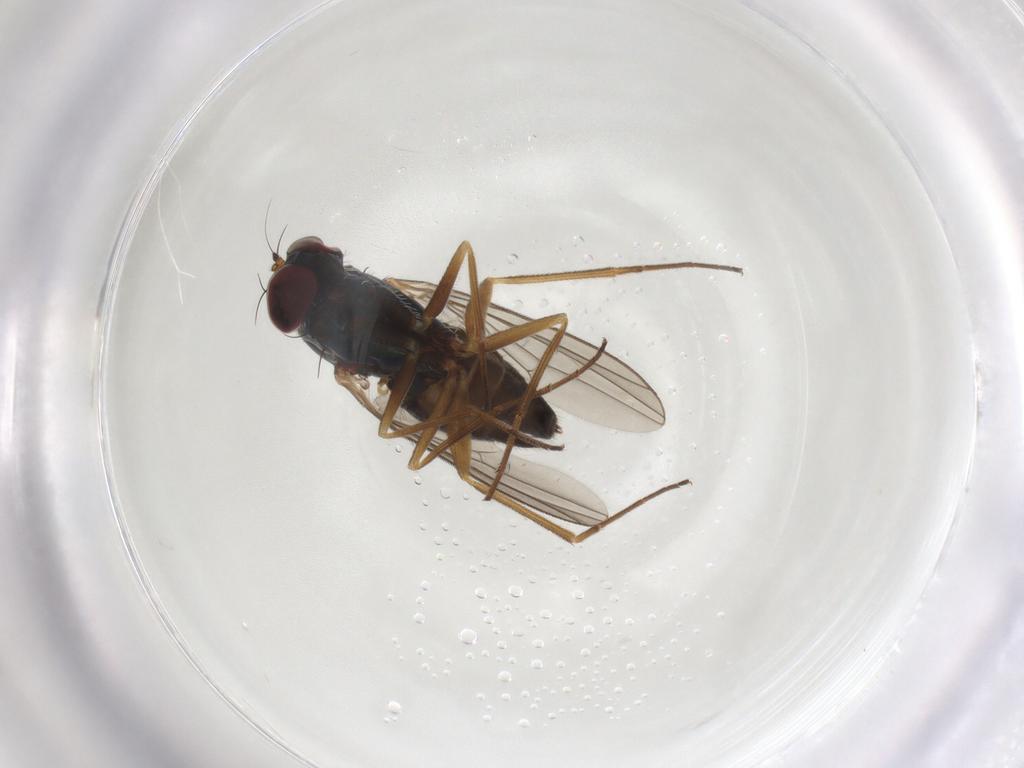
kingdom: Animalia
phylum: Arthropoda
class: Insecta
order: Diptera
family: Dolichopodidae
